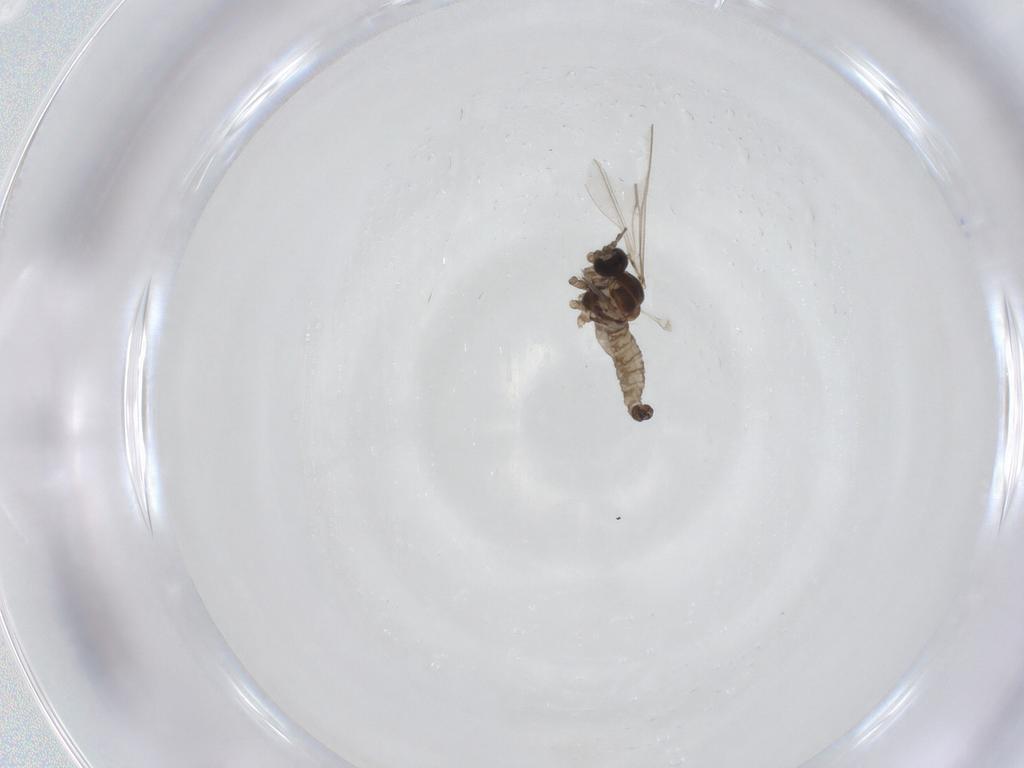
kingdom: Animalia
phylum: Arthropoda
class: Insecta
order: Diptera
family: Cecidomyiidae
